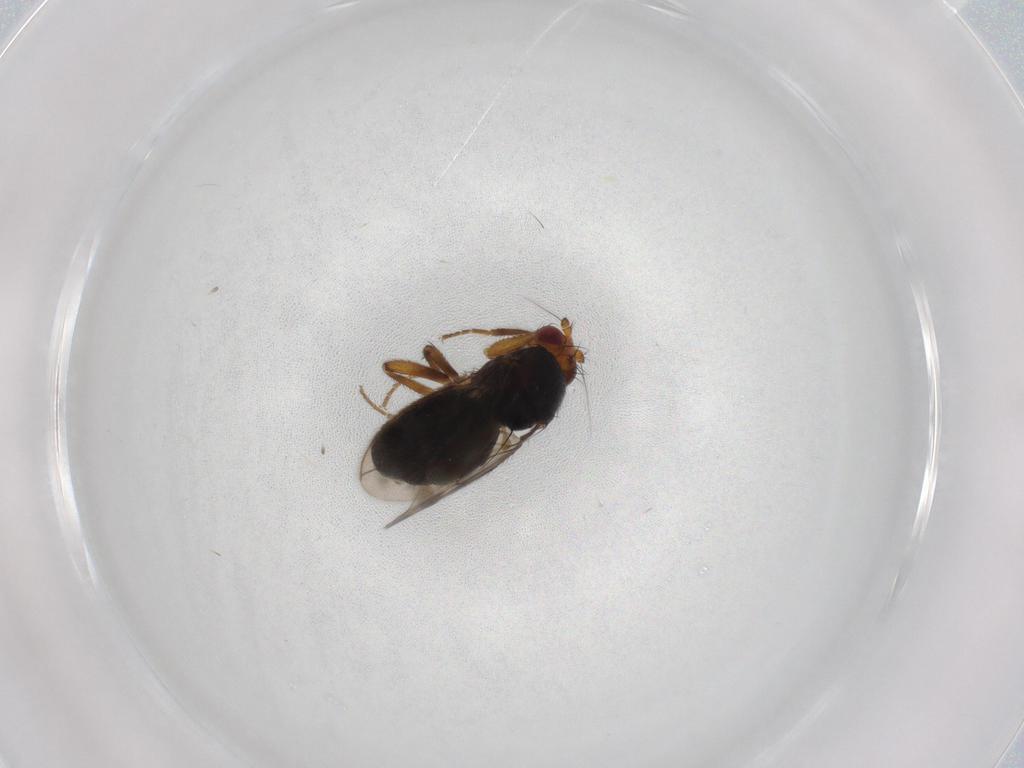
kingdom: Animalia
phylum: Arthropoda
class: Insecta
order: Diptera
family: Sphaeroceridae
